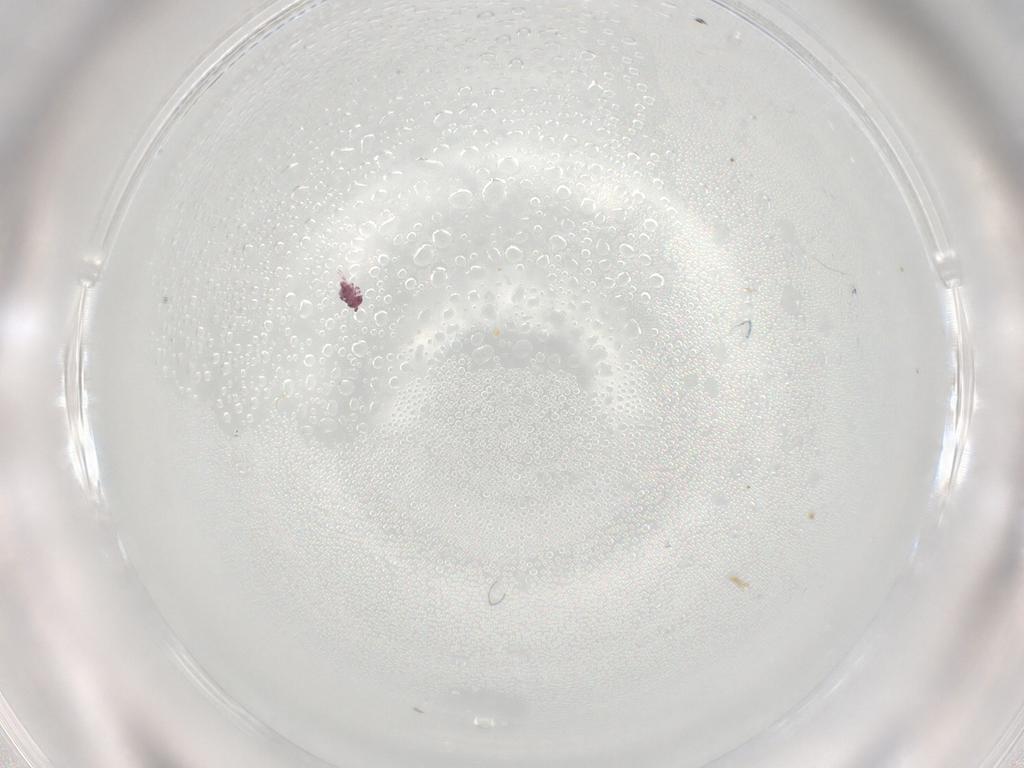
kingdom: Animalia
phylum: Arthropoda
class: Collembola
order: Symphypleona
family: Sminthurididae
